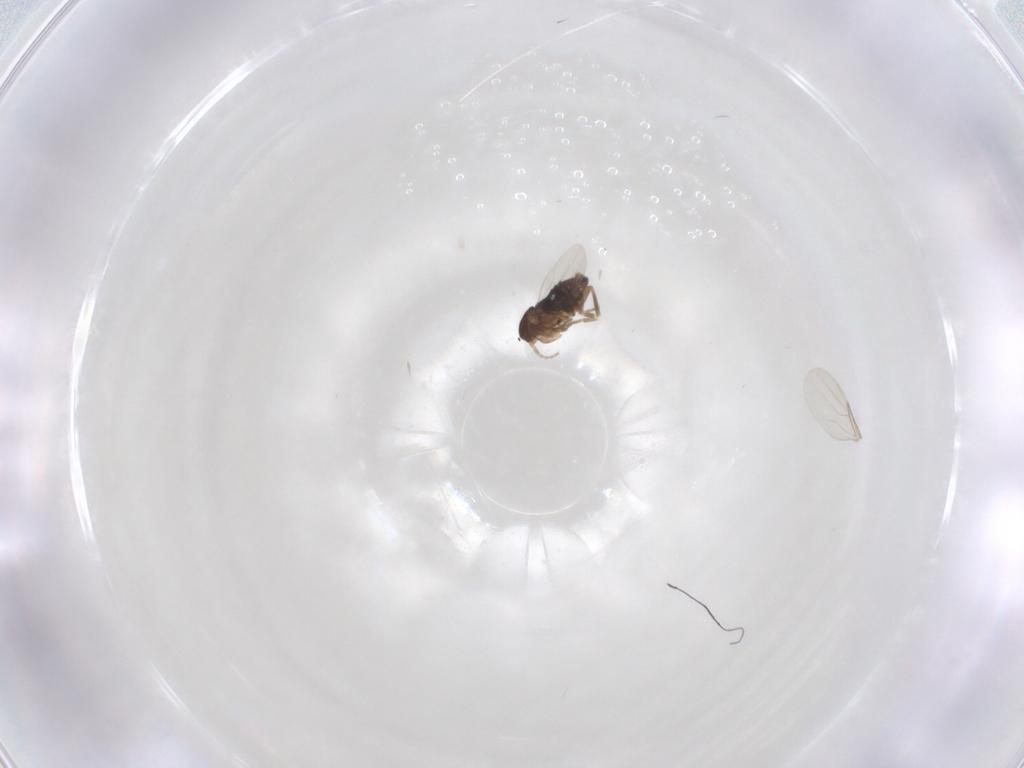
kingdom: Animalia
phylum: Arthropoda
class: Insecta
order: Diptera
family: Phoridae
